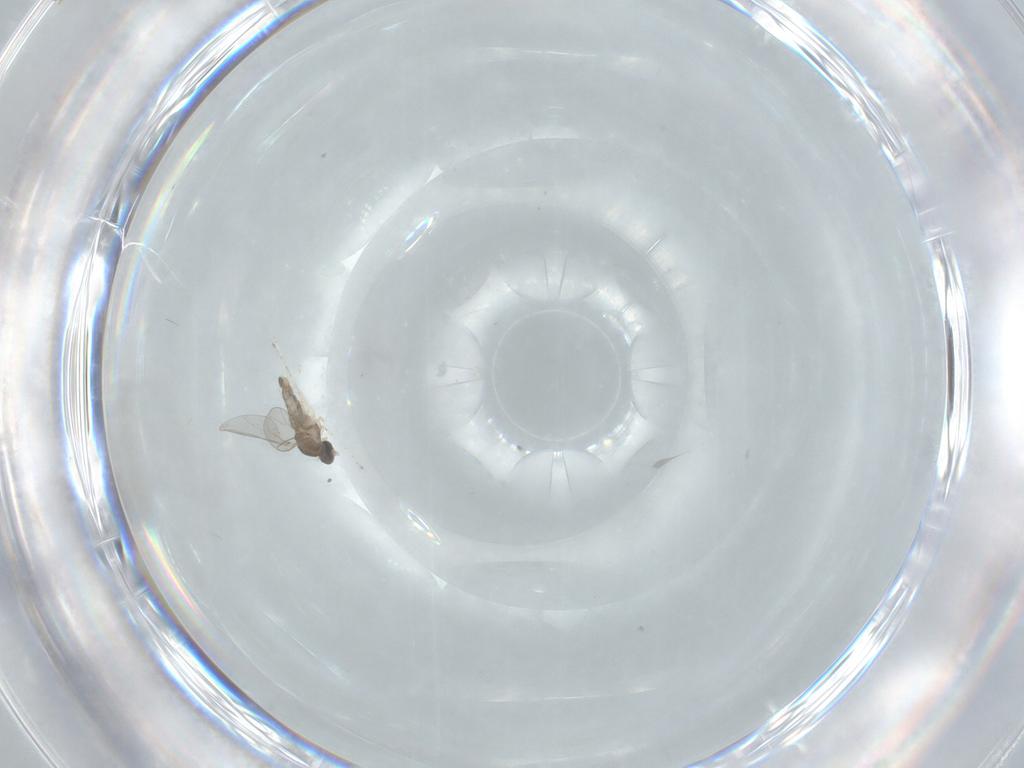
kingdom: Animalia
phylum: Arthropoda
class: Insecta
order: Diptera
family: Cecidomyiidae
